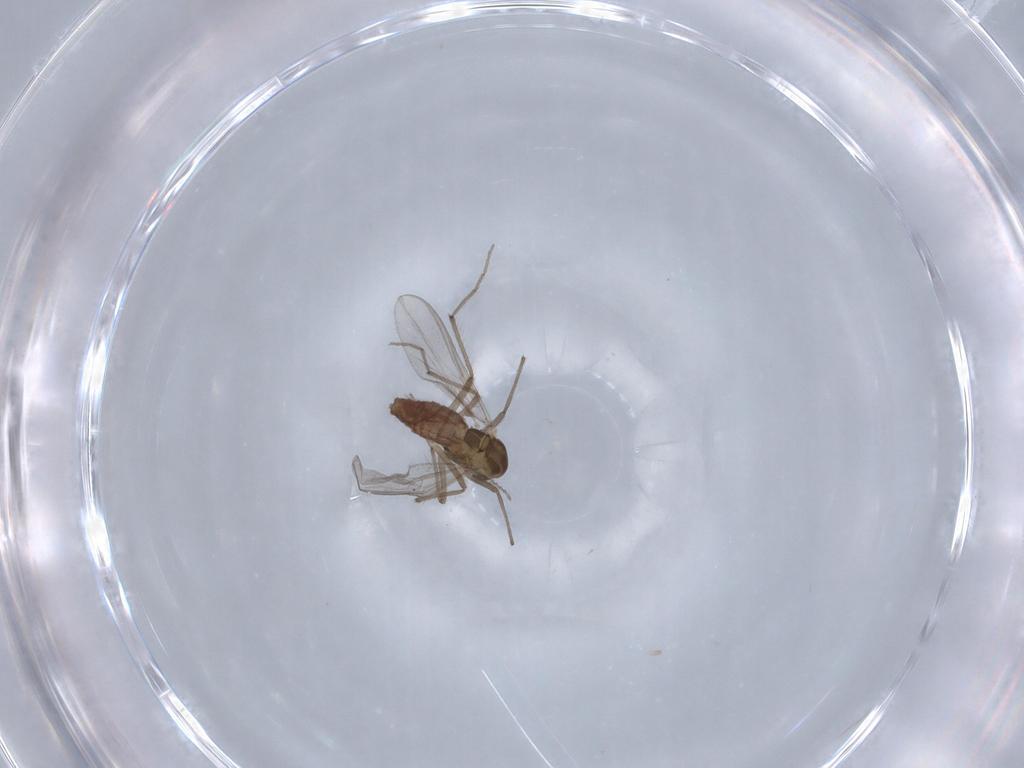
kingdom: Animalia
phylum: Arthropoda
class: Insecta
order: Diptera
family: Chironomidae
